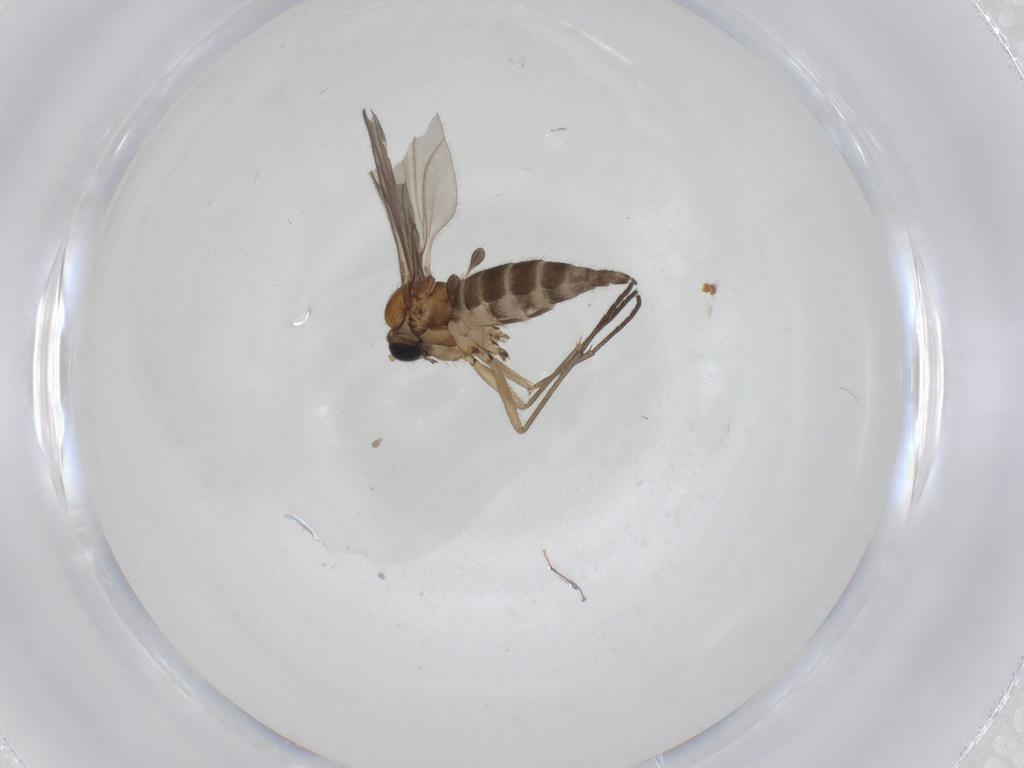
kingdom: Animalia
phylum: Arthropoda
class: Insecta
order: Diptera
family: Sciaridae
